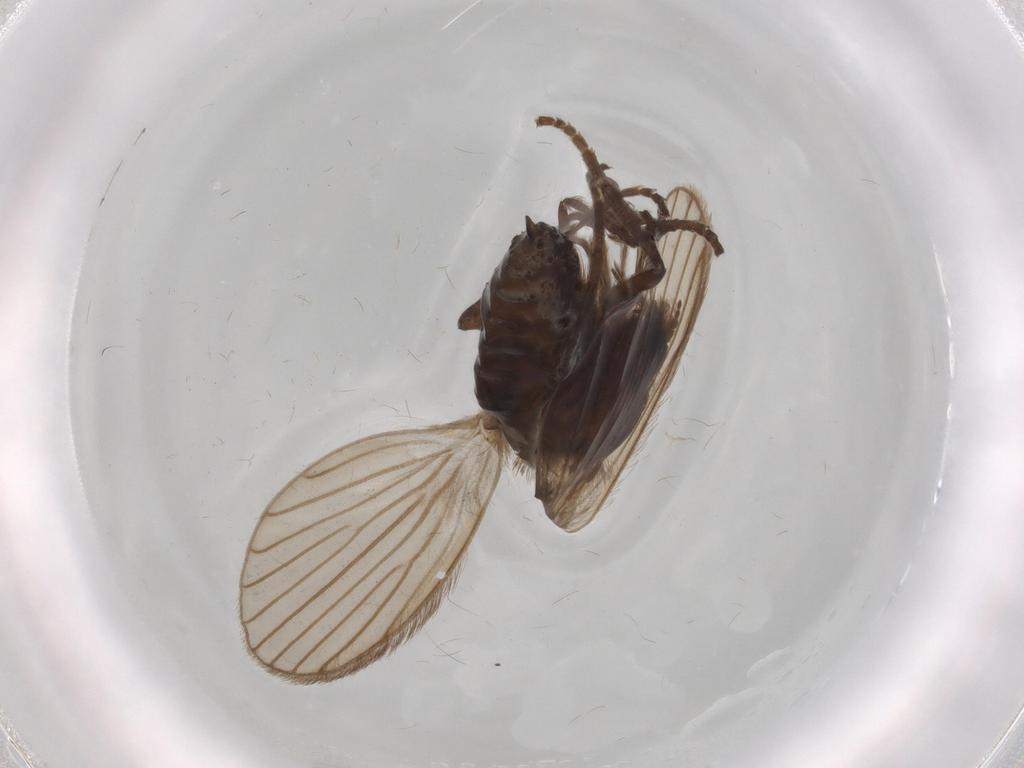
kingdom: Animalia
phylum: Arthropoda
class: Insecta
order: Diptera
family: Psychodidae
